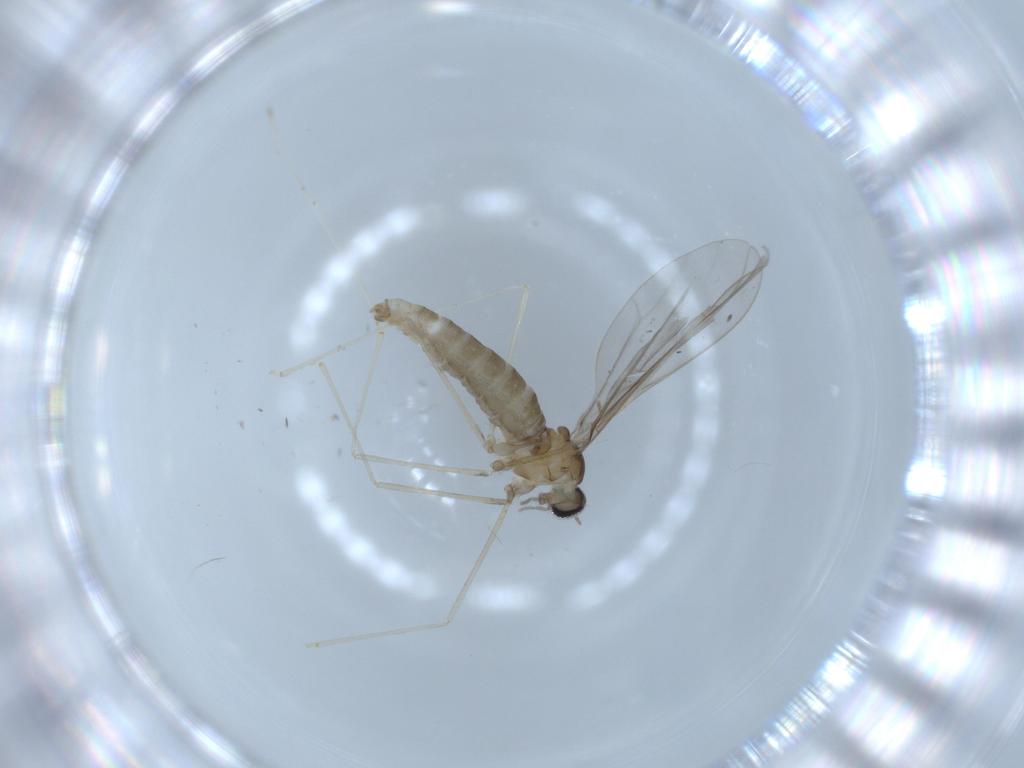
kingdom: Animalia
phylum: Arthropoda
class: Insecta
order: Diptera
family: Cecidomyiidae
